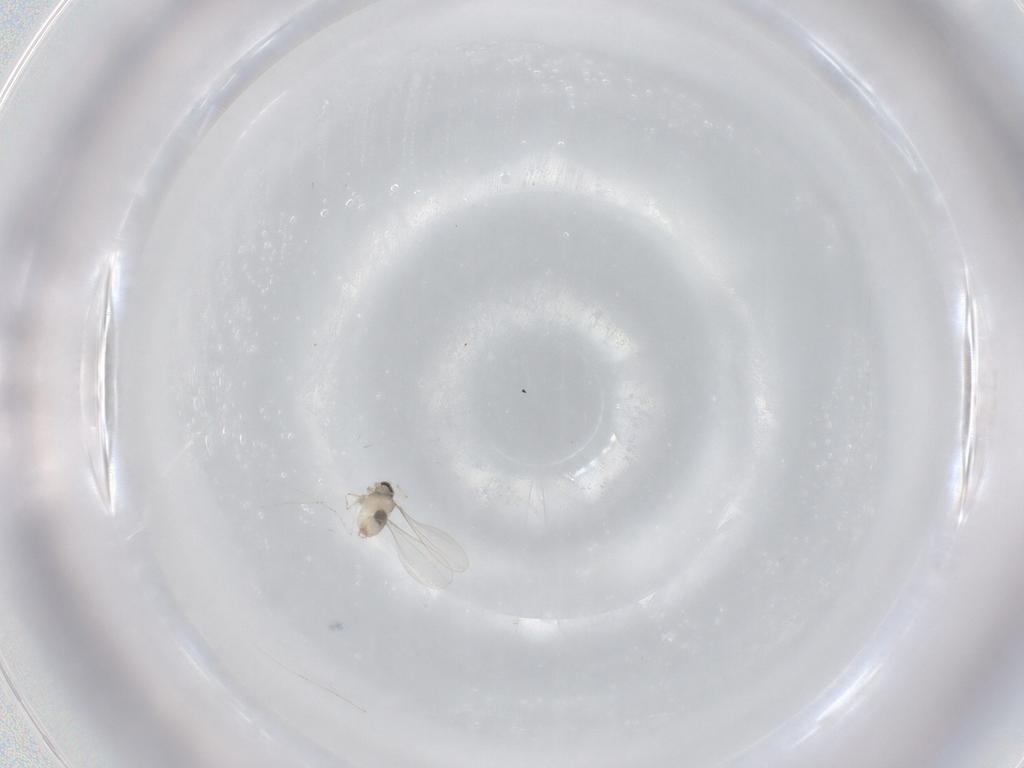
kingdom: Animalia
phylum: Arthropoda
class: Insecta
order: Diptera
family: Cecidomyiidae
